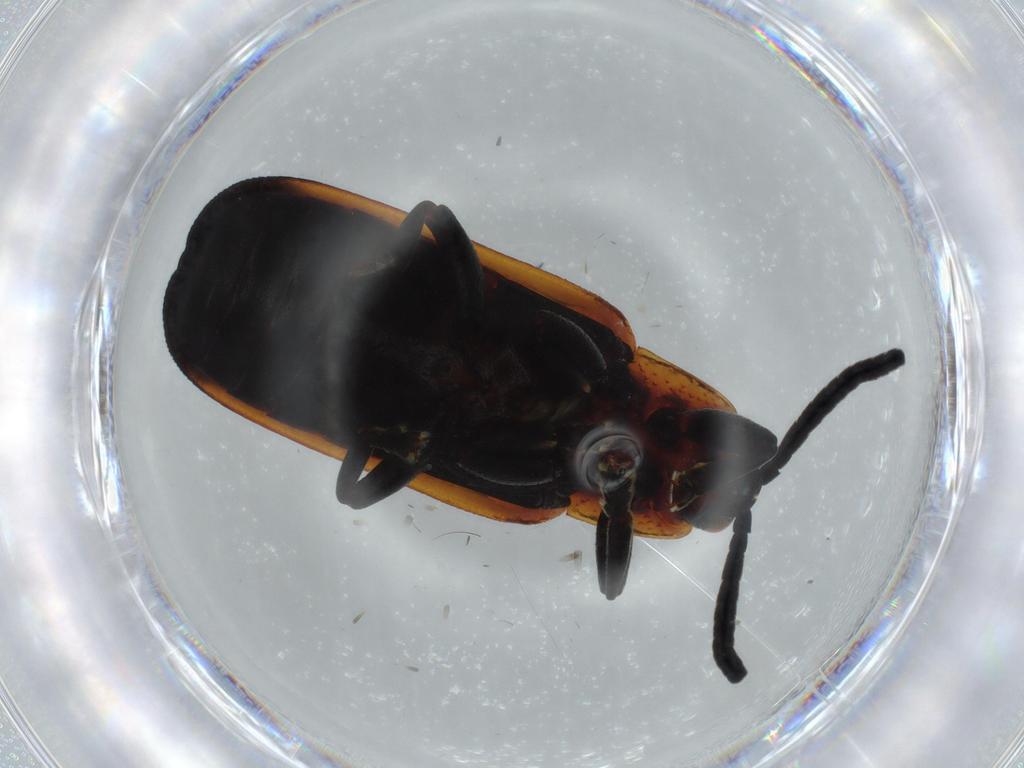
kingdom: Animalia
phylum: Arthropoda
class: Insecta
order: Coleoptera
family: Chrysomelidae
